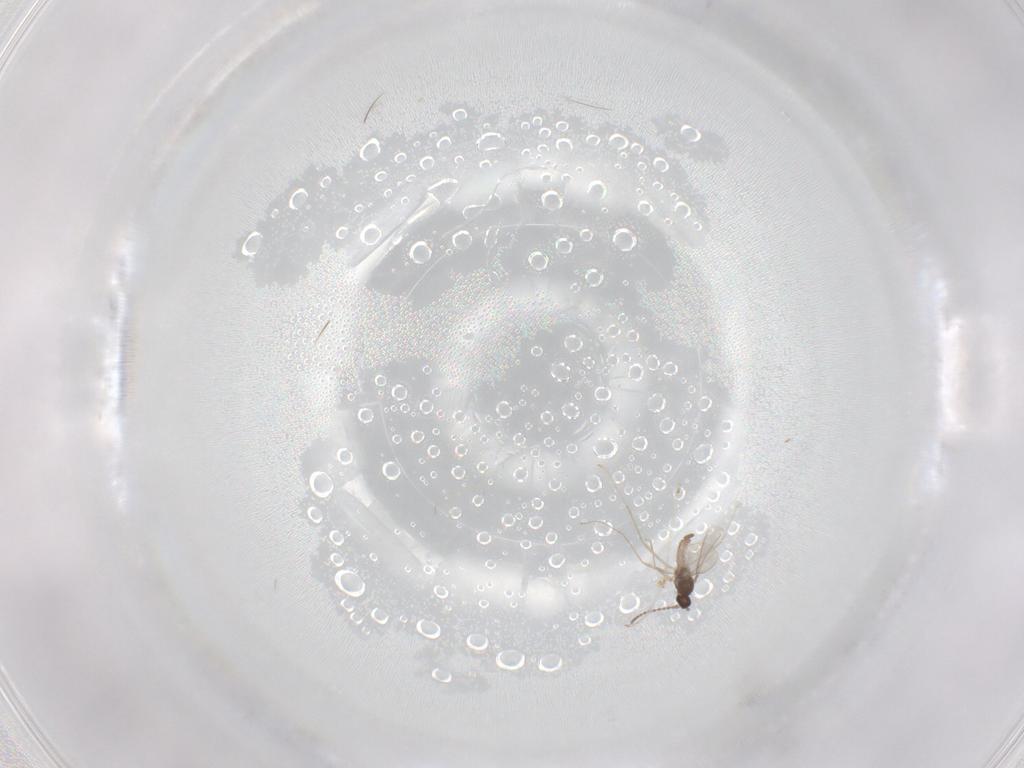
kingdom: Animalia
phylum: Arthropoda
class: Insecta
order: Diptera
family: Cecidomyiidae
